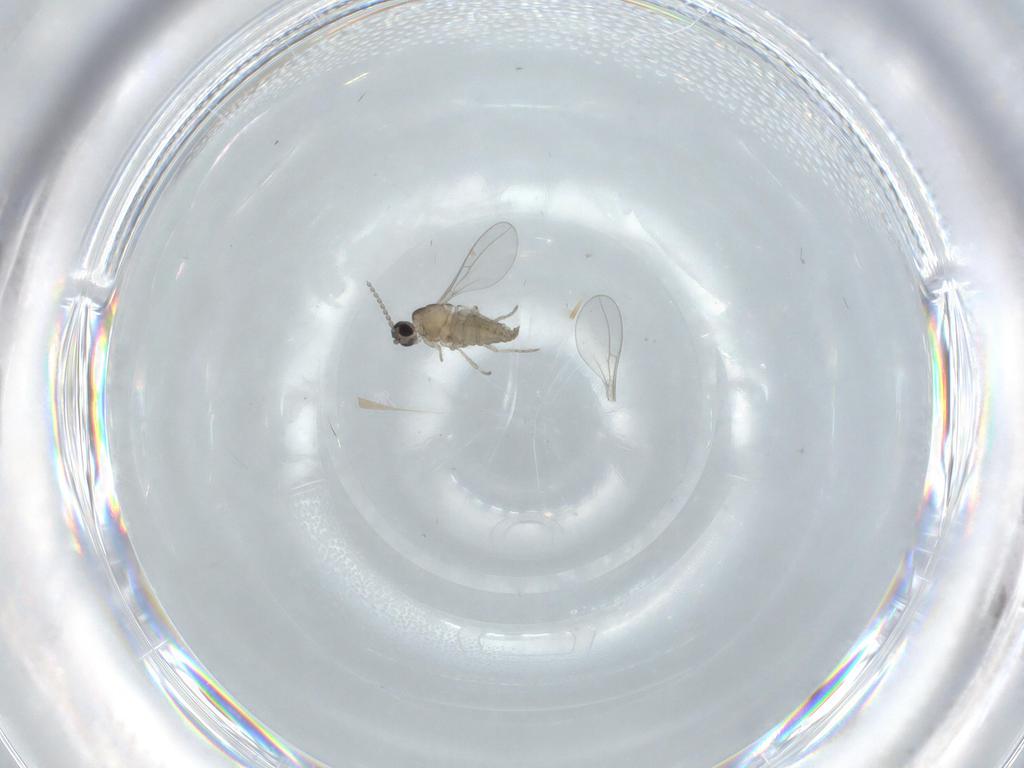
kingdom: Animalia
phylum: Arthropoda
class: Insecta
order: Diptera
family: Cecidomyiidae
